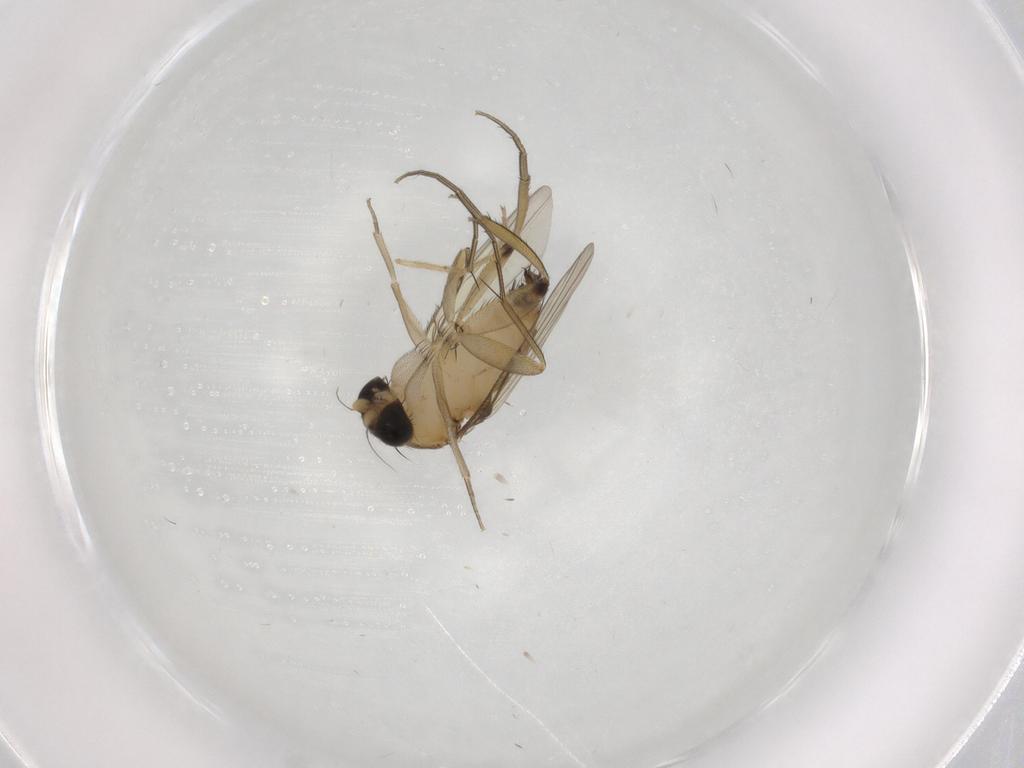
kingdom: Animalia
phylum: Arthropoda
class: Insecta
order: Diptera
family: Phoridae
